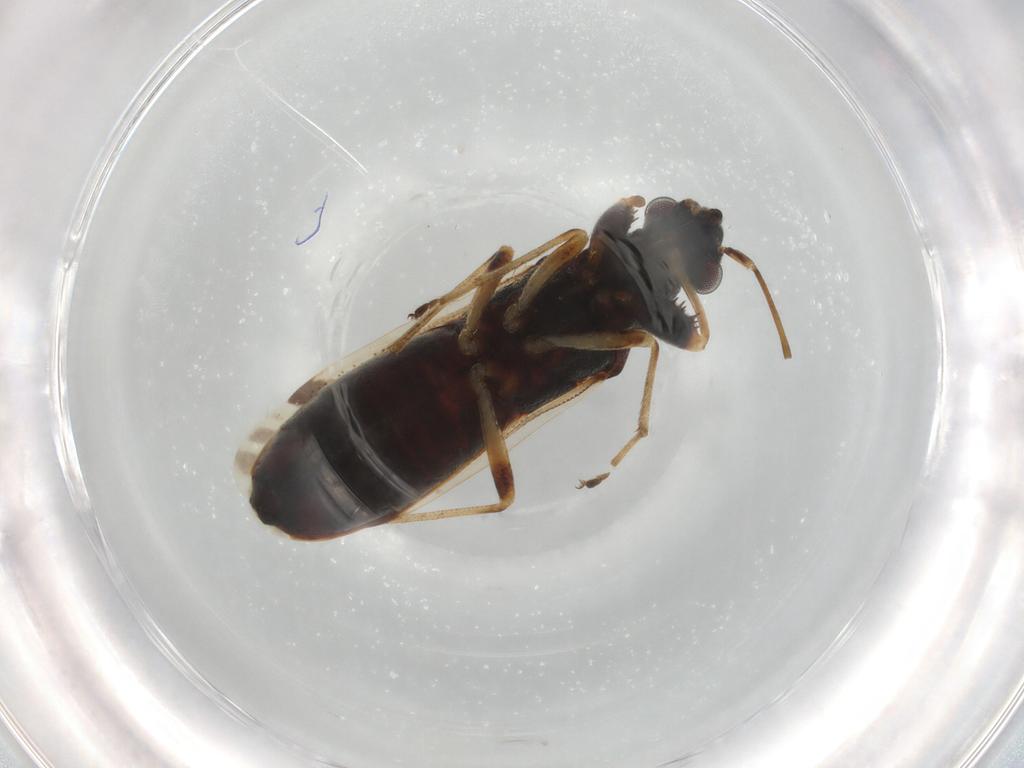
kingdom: Animalia
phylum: Arthropoda
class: Insecta
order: Hemiptera
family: Rhyparochromidae
